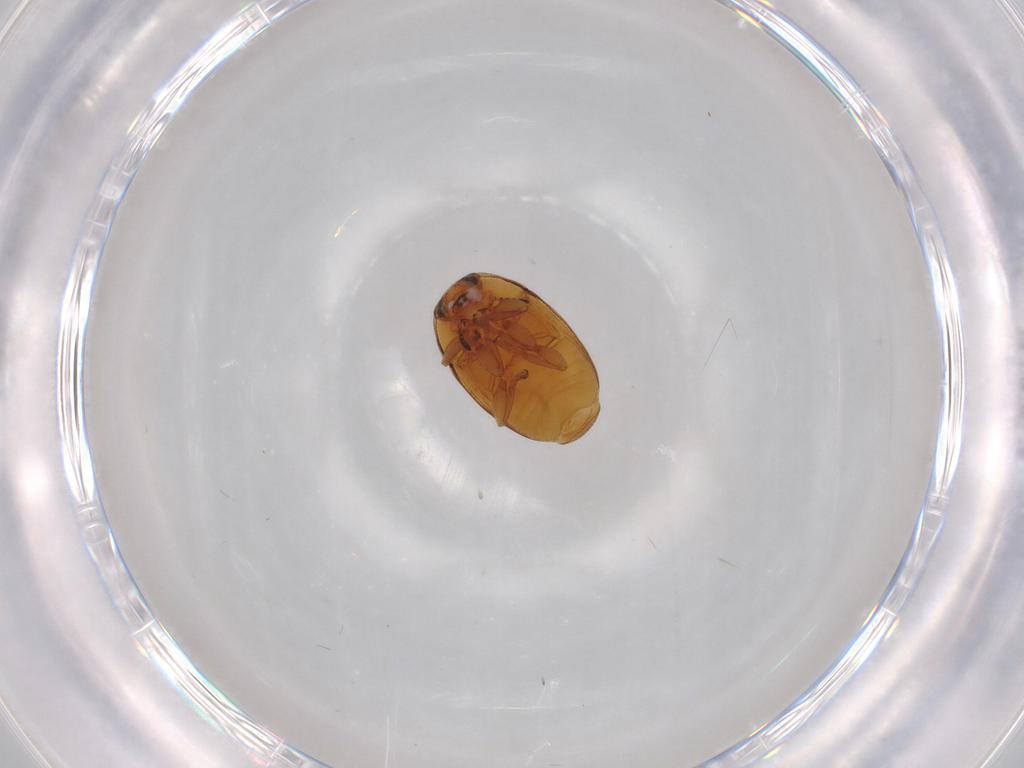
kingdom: Animalia
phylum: Arthropoda
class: Insecta
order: Coleoptera
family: Chrysomelidae
